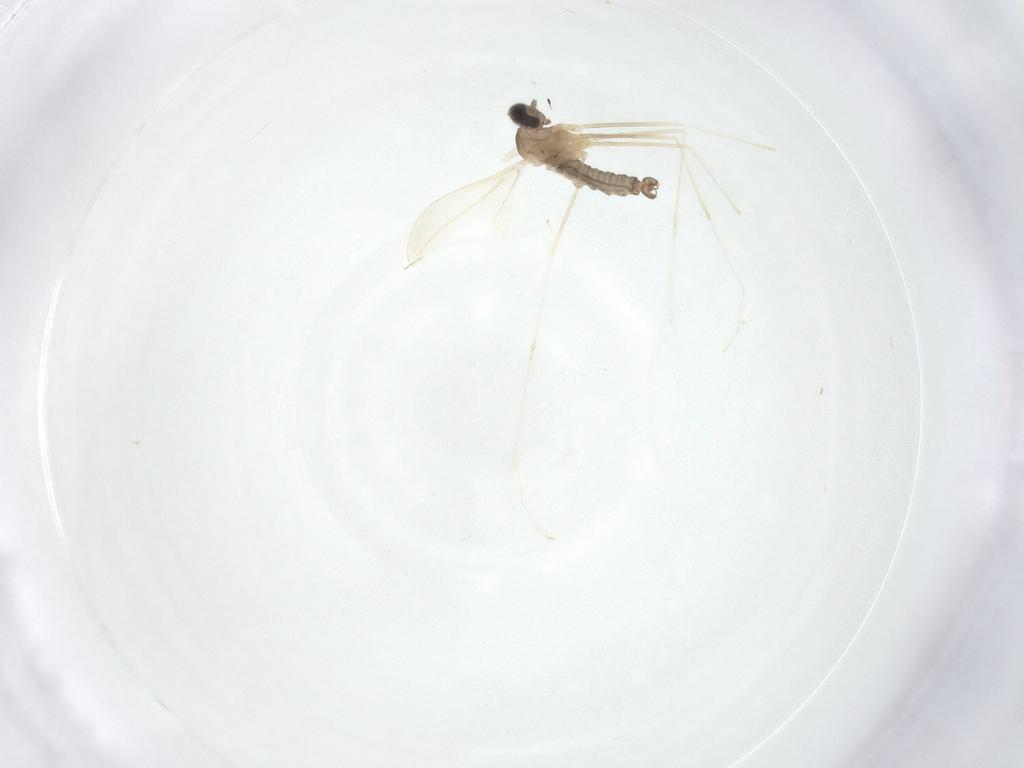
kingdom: Animalia
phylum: Arthropoda
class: Insecta
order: Diptera
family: Cecidomyiidae
